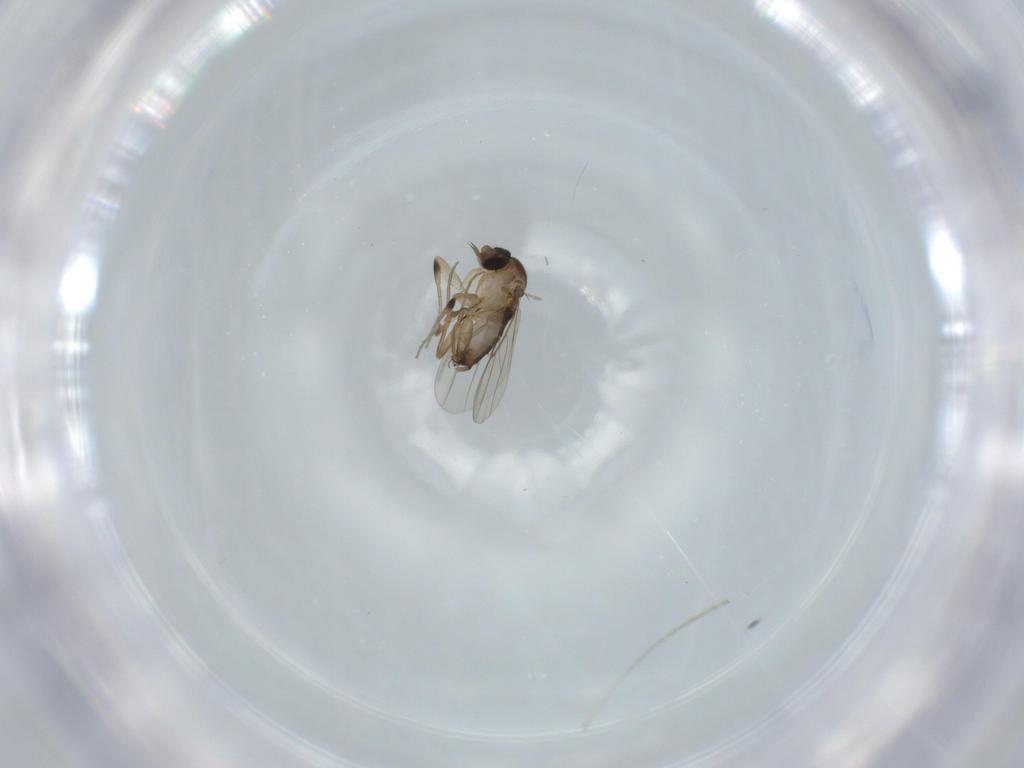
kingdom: Animalia
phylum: Arthropoda
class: Insecta
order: Diptera
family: Phoridae
